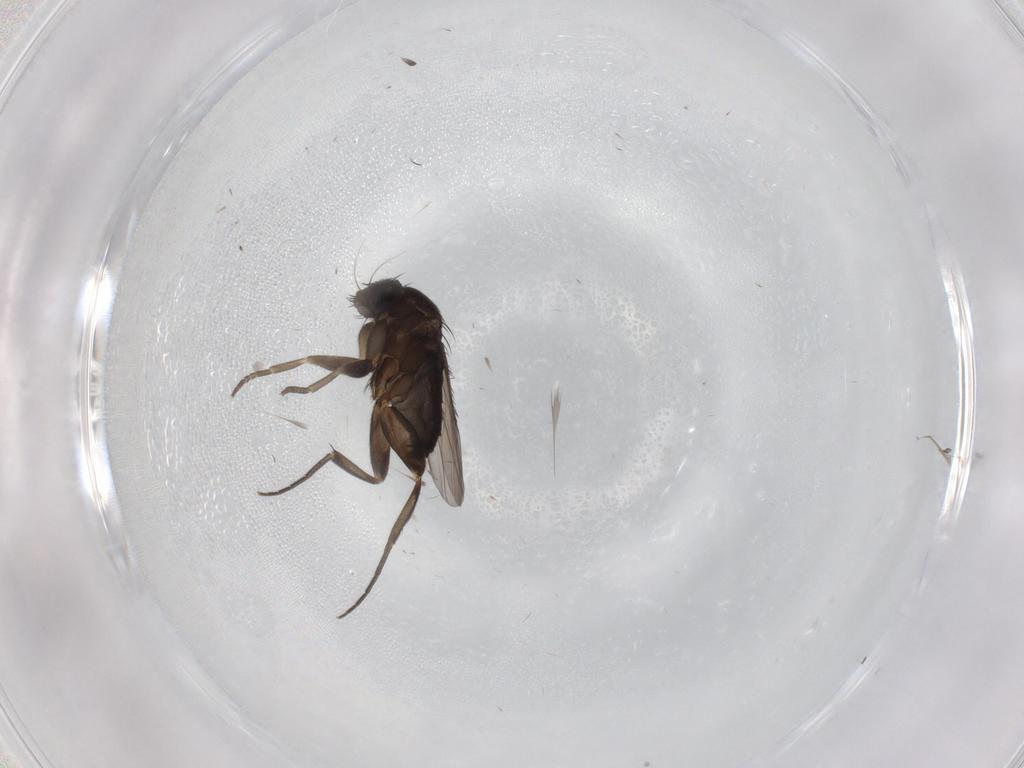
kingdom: Animalia
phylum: Arthropoda
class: Insecta
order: Diptera
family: Phoridae
